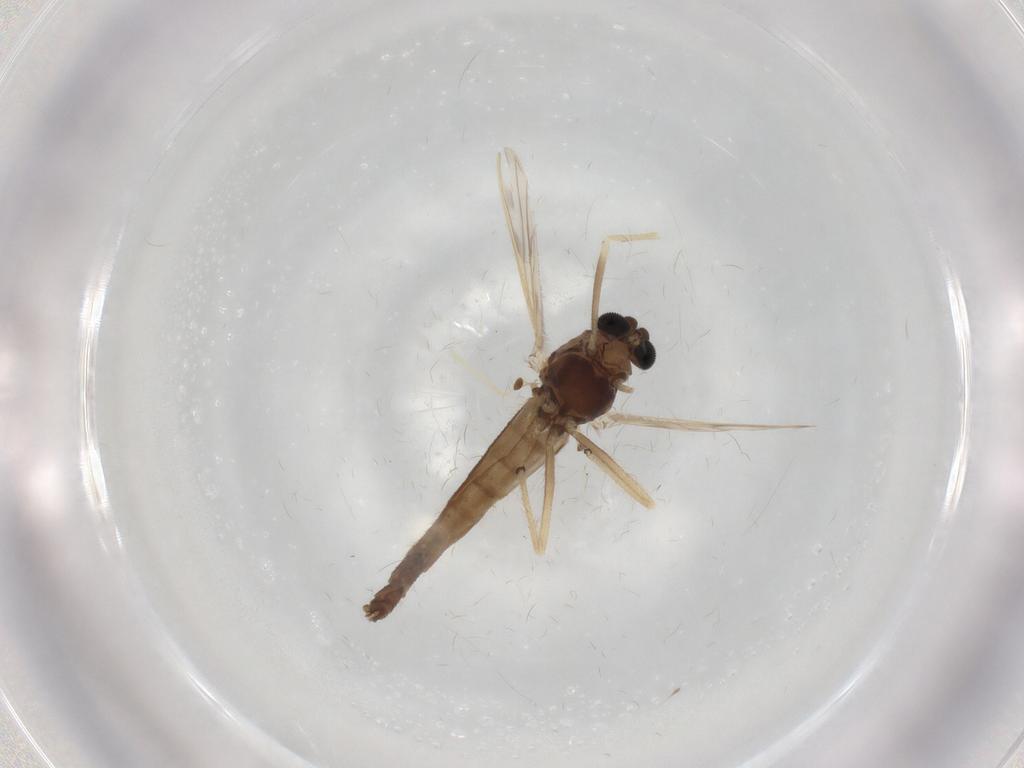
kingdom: Animalia
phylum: Arthropoda
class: Insecta
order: Diptera
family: Chironomidae
